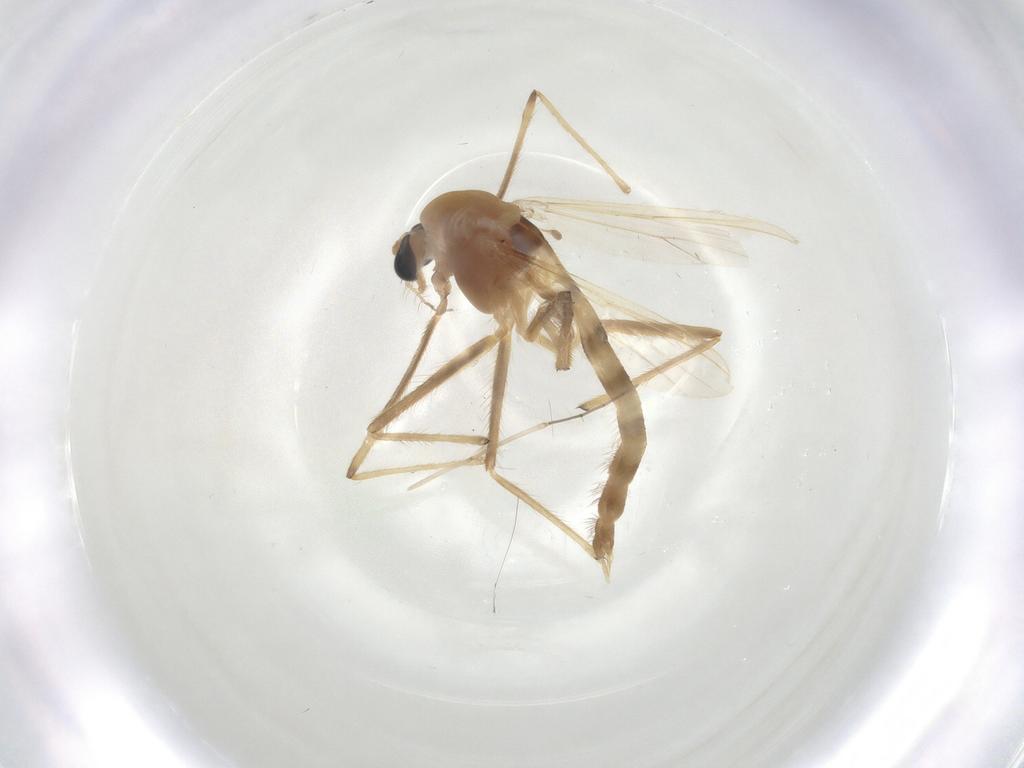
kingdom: Animalia
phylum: Arthropoda
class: Insecta
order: Diptera
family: Chironomidae
